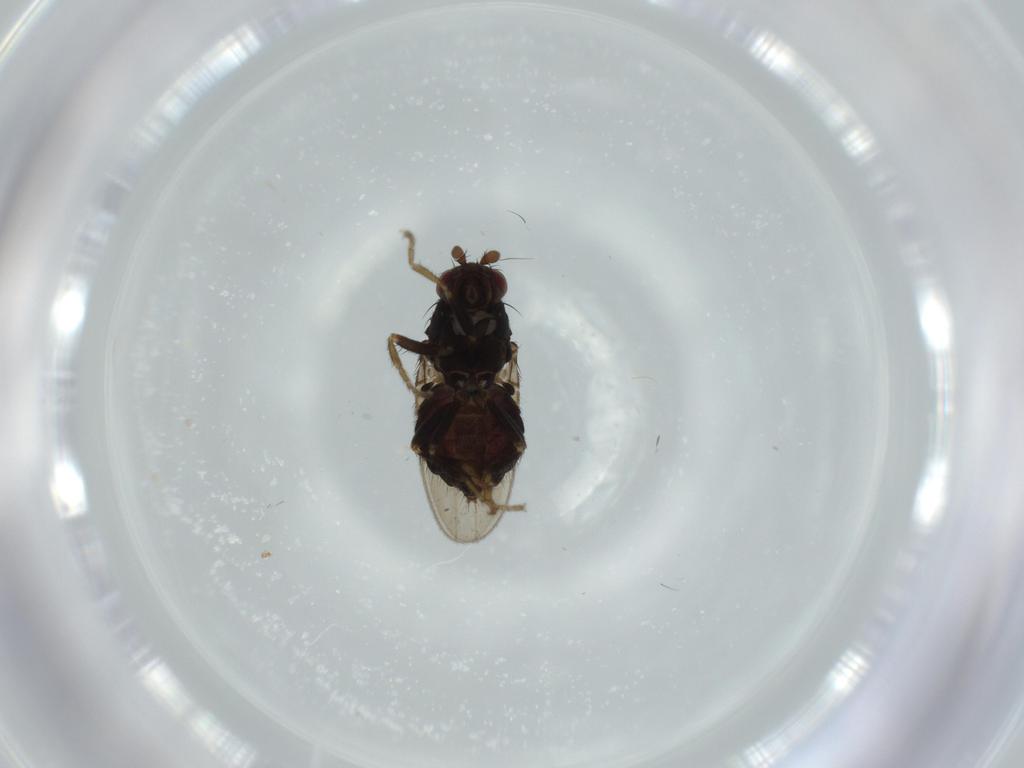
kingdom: Animalia
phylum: Arthropoda
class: Insecta
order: Diptera
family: Sphaeroceridae
